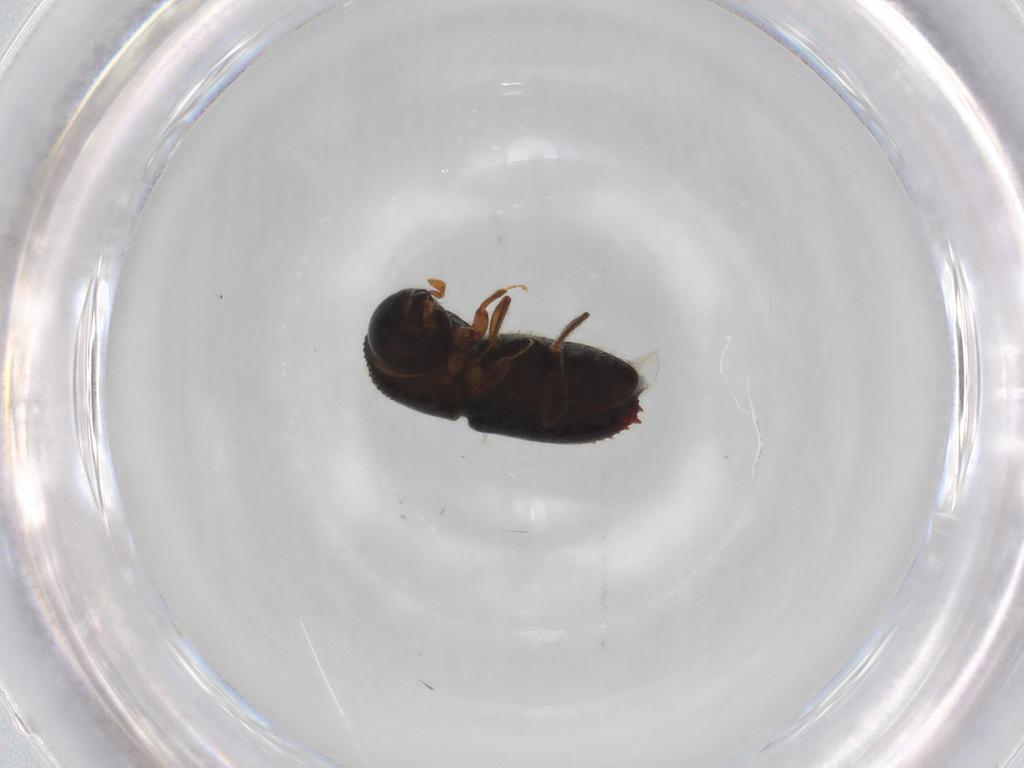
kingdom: Animalia
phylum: Arthropoda
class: Insecta
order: Coleoptera
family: Curculionidae
